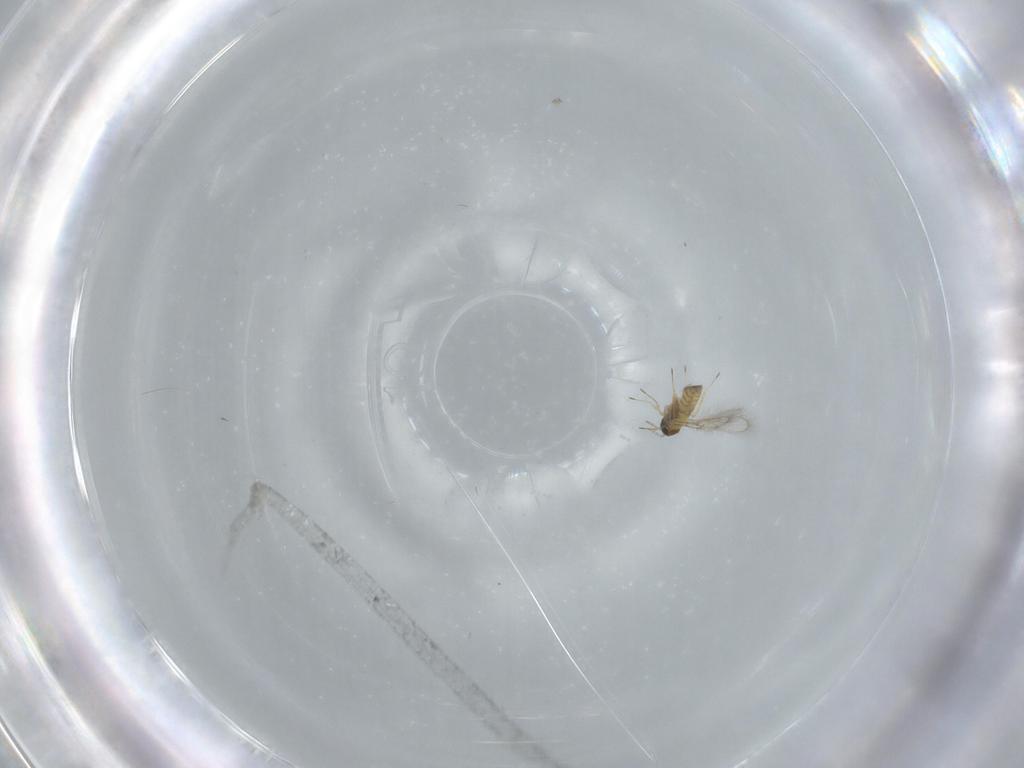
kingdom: Animalia
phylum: Arthropoda
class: Insecta
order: Hymenoptera
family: Trichogrammatidae
